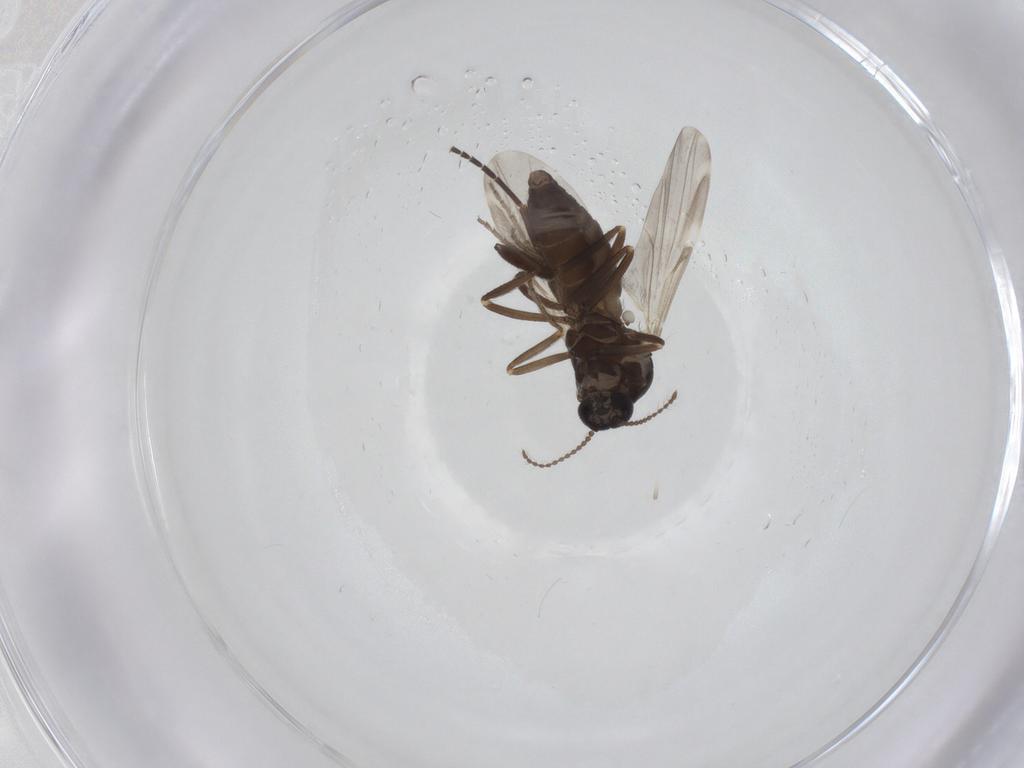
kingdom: Animalia
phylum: Arthropoda
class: Insecta
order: Diptera
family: Ceratopogonidae
